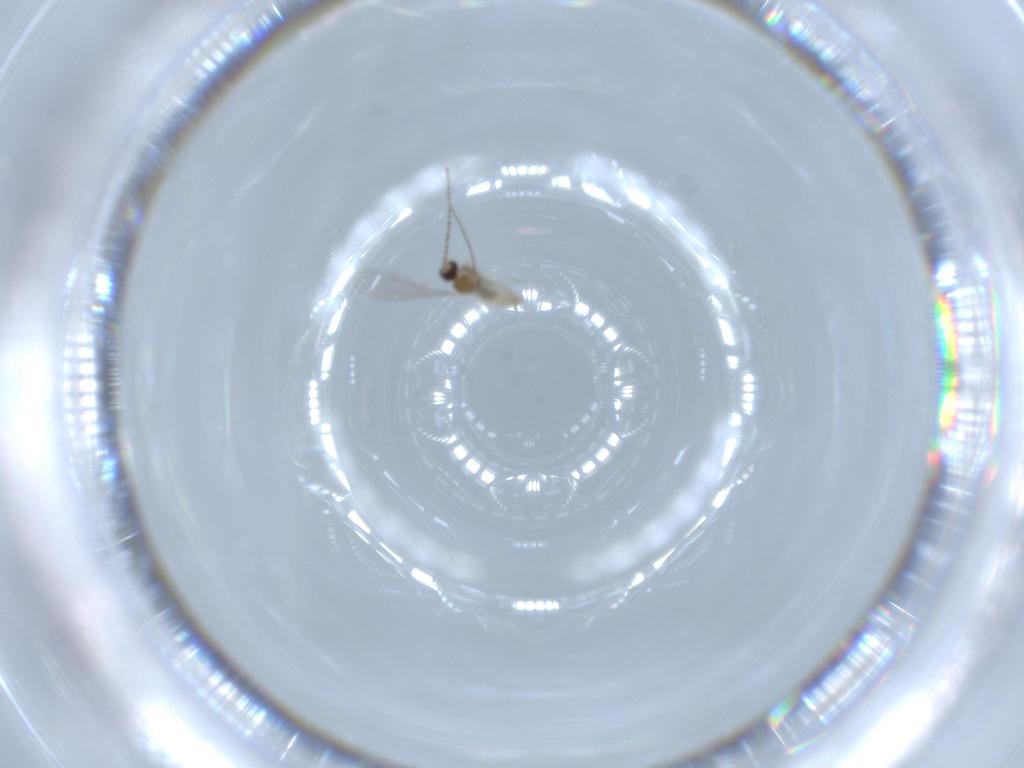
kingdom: Animalia
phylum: Arthropoda
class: Insecta
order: Diptera
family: Cecidomyiidae
